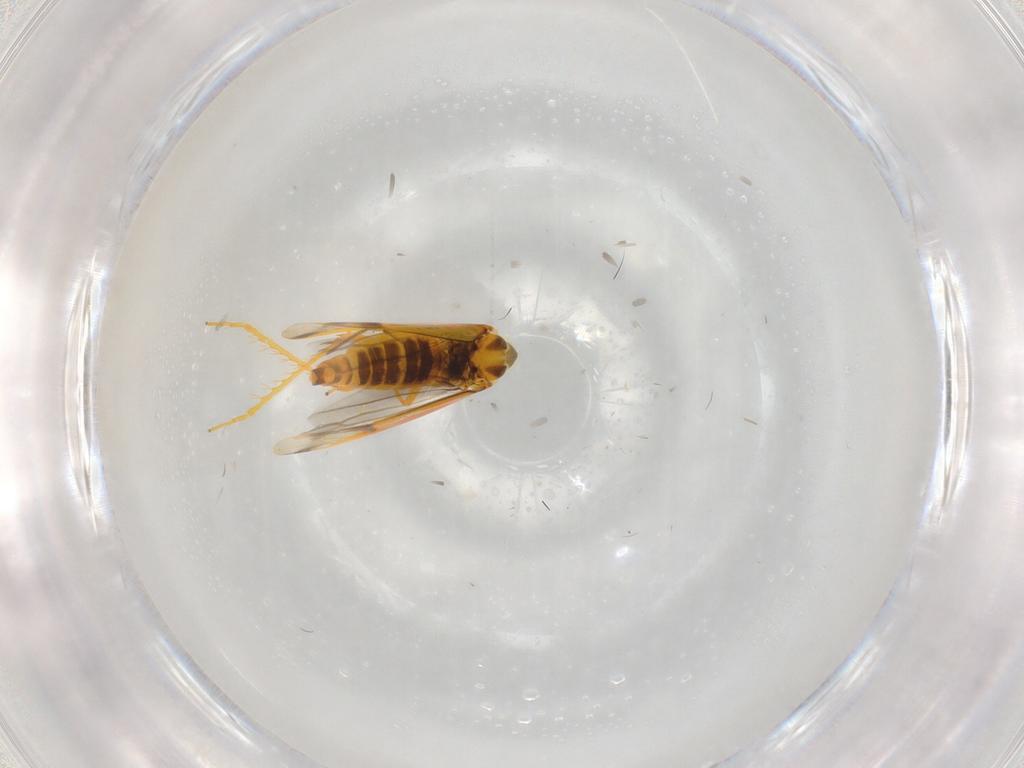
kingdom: Animalia
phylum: Arthropoda
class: Insecta
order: Hemiptera
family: Cicadellidae
